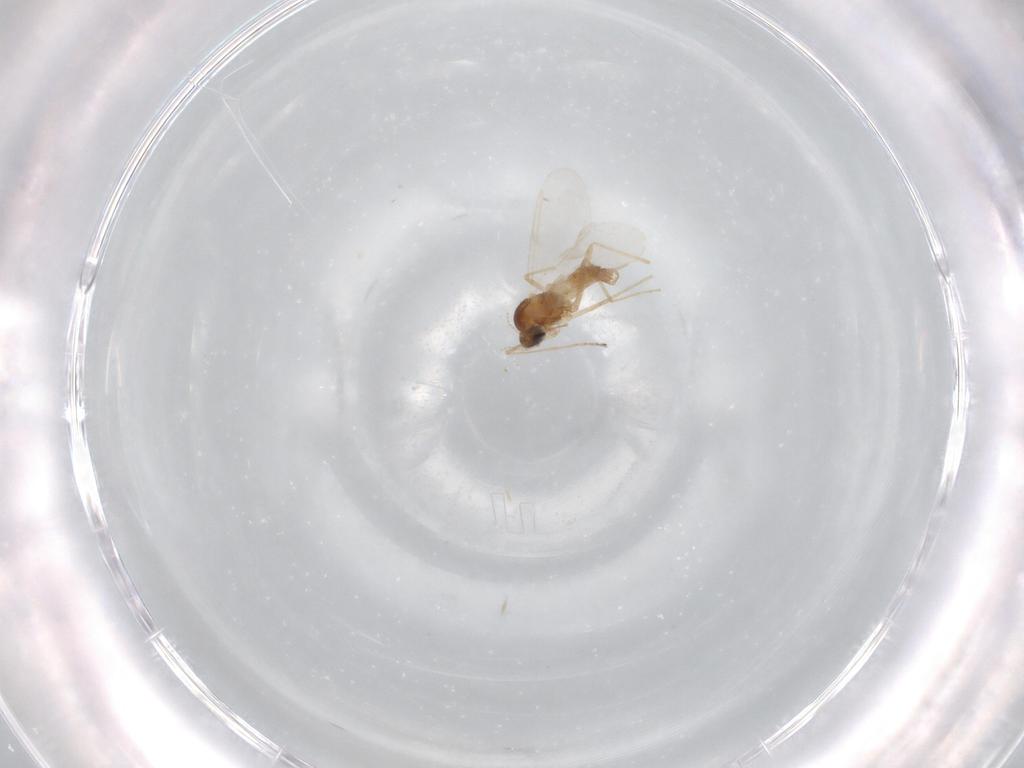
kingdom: Animalia
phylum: Arthropoda
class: Insecta
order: Diptera
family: Cecidomyiidae
